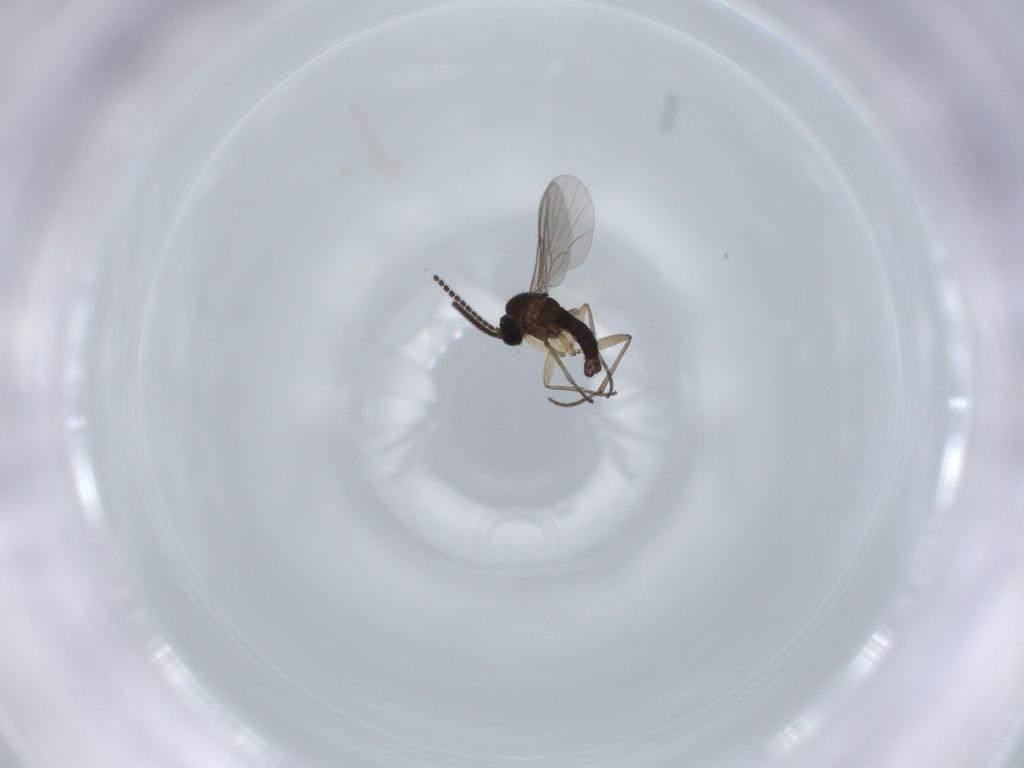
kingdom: Animalia
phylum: Arthropoda
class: Insecta
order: Diptera
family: Sciaridae
